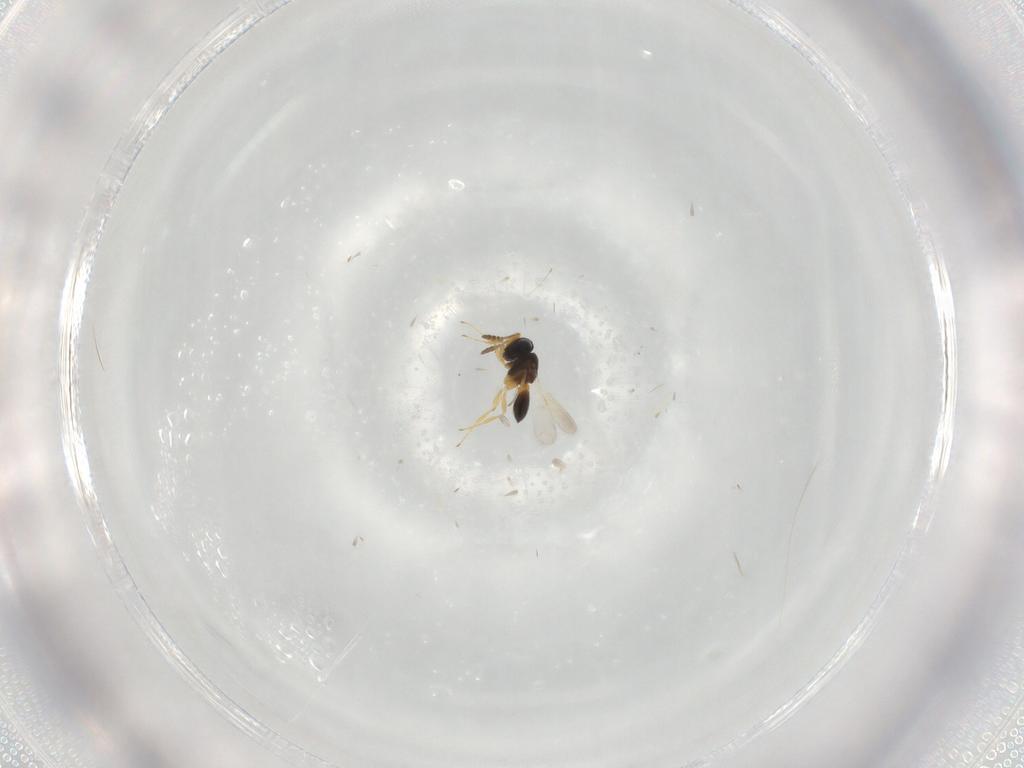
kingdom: Animalia
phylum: Arthropoda
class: Insecta
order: Hymenoptera
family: Scelionidae
